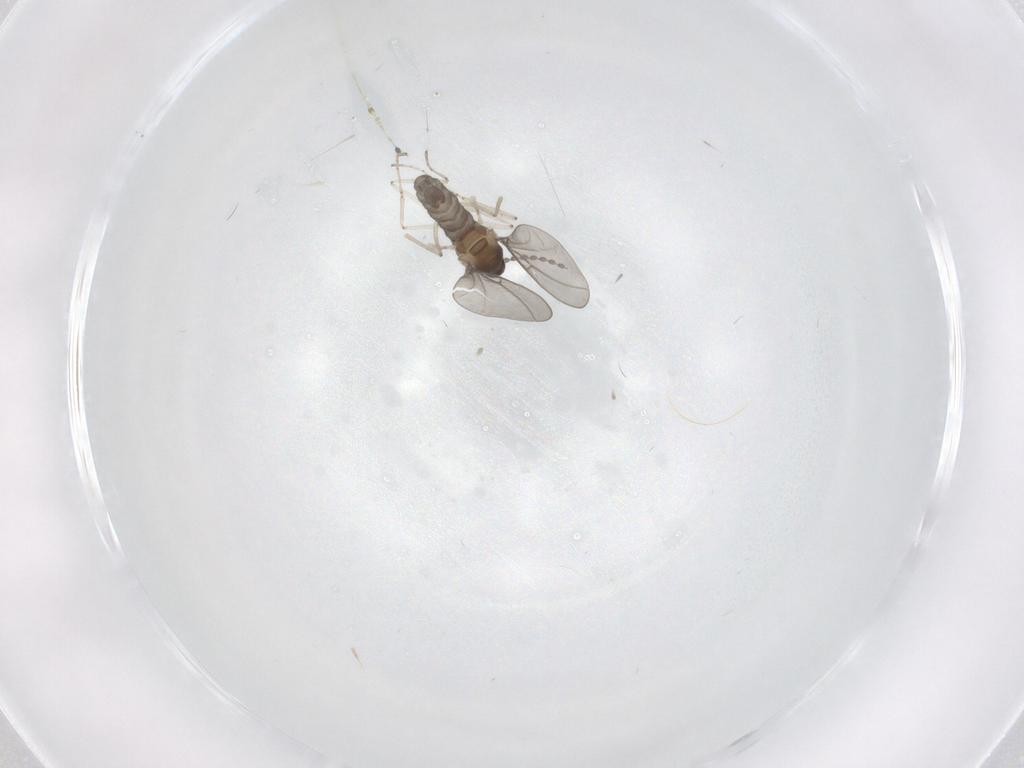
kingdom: Animalia
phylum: Arthropoda
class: Insecta
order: Diptera
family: Cecidomyiidae
